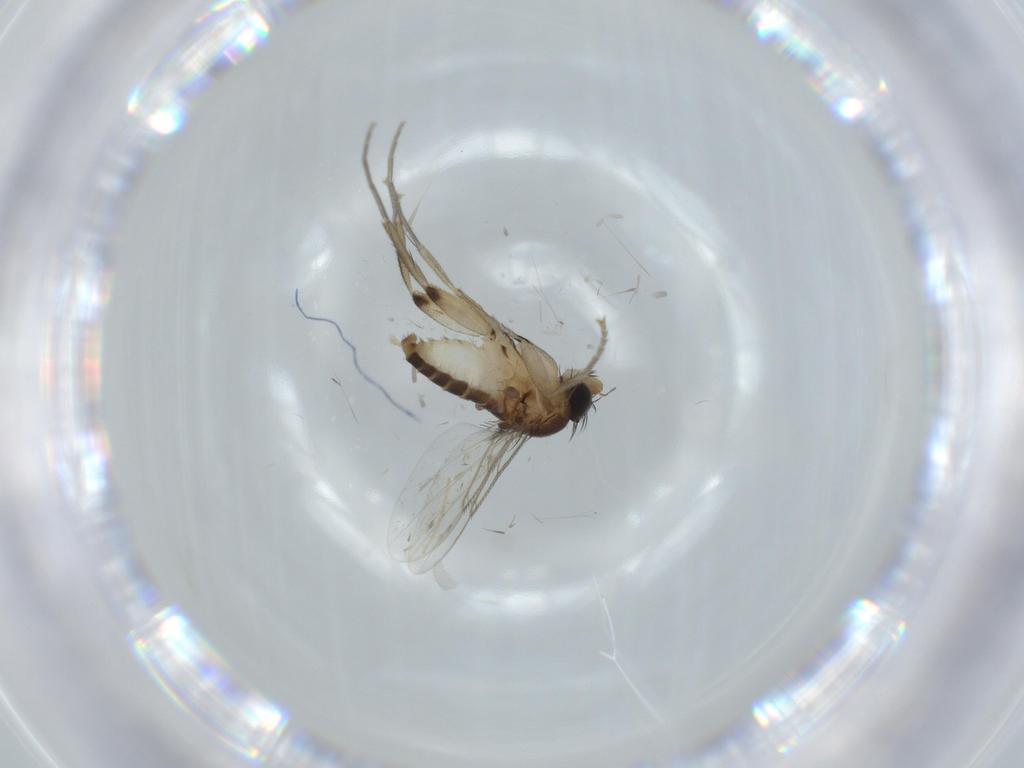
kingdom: Animalia
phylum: Arthropoda
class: Insecta
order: Diptera
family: Phoridae
